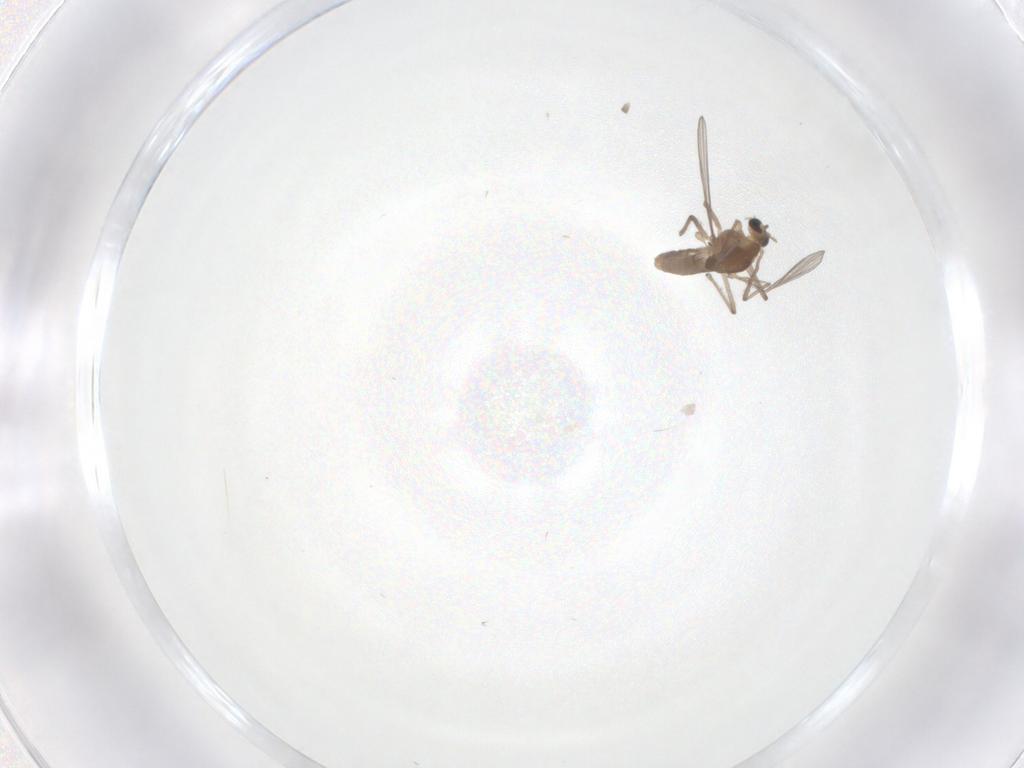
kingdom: Animalia
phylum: Arthropoda
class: Insecta
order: Diptera
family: Chironomidae
